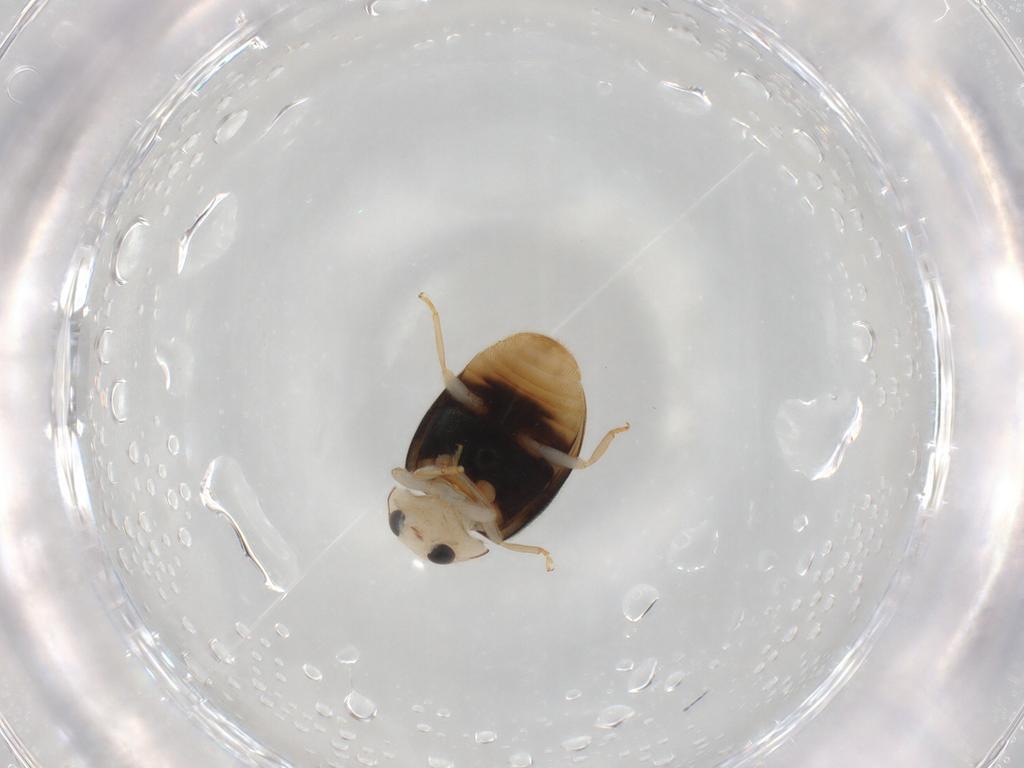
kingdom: Animalia
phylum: Arthropoda
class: Insecta
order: Coleoptera
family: Coccinellidae
